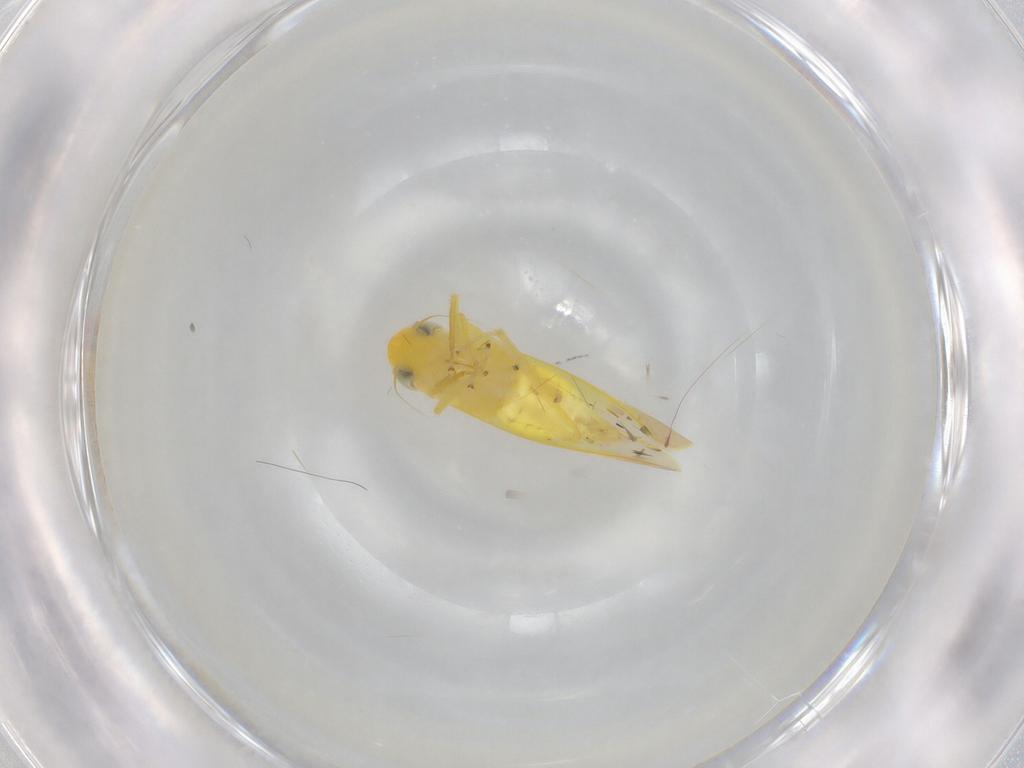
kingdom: Animalia
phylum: Arthropoda
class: Insecta
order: Hemiptera
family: Cicadellidae
